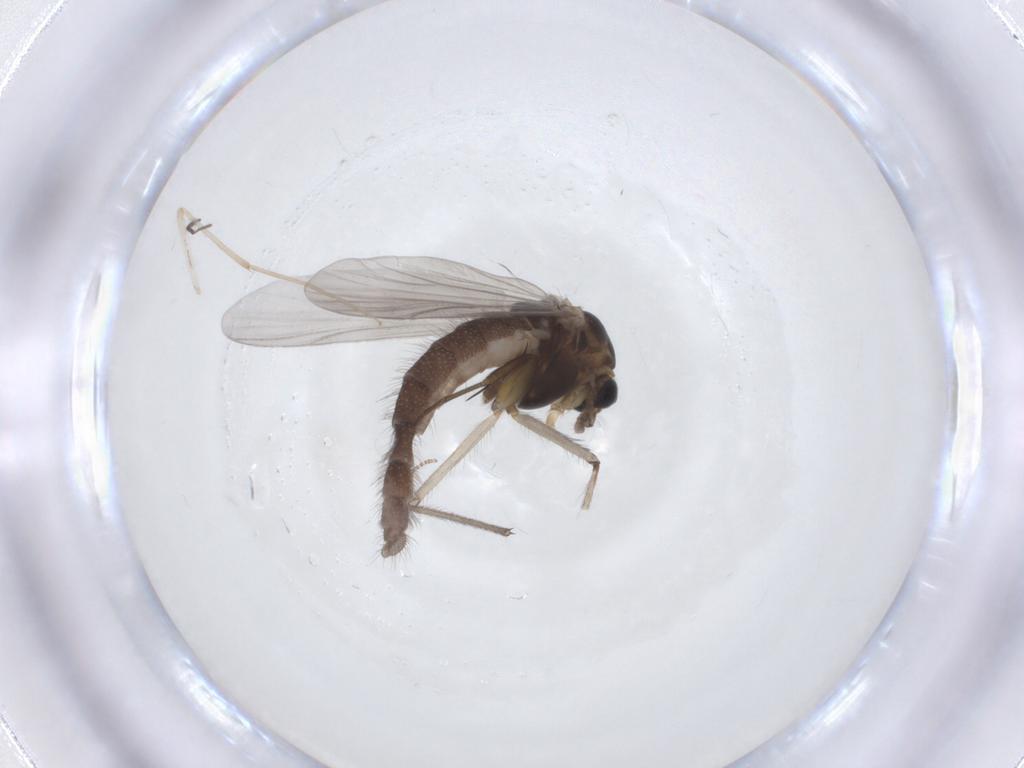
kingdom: Animalia
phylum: Arthropoda
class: Insecta
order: Diptera
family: Chironomidae
